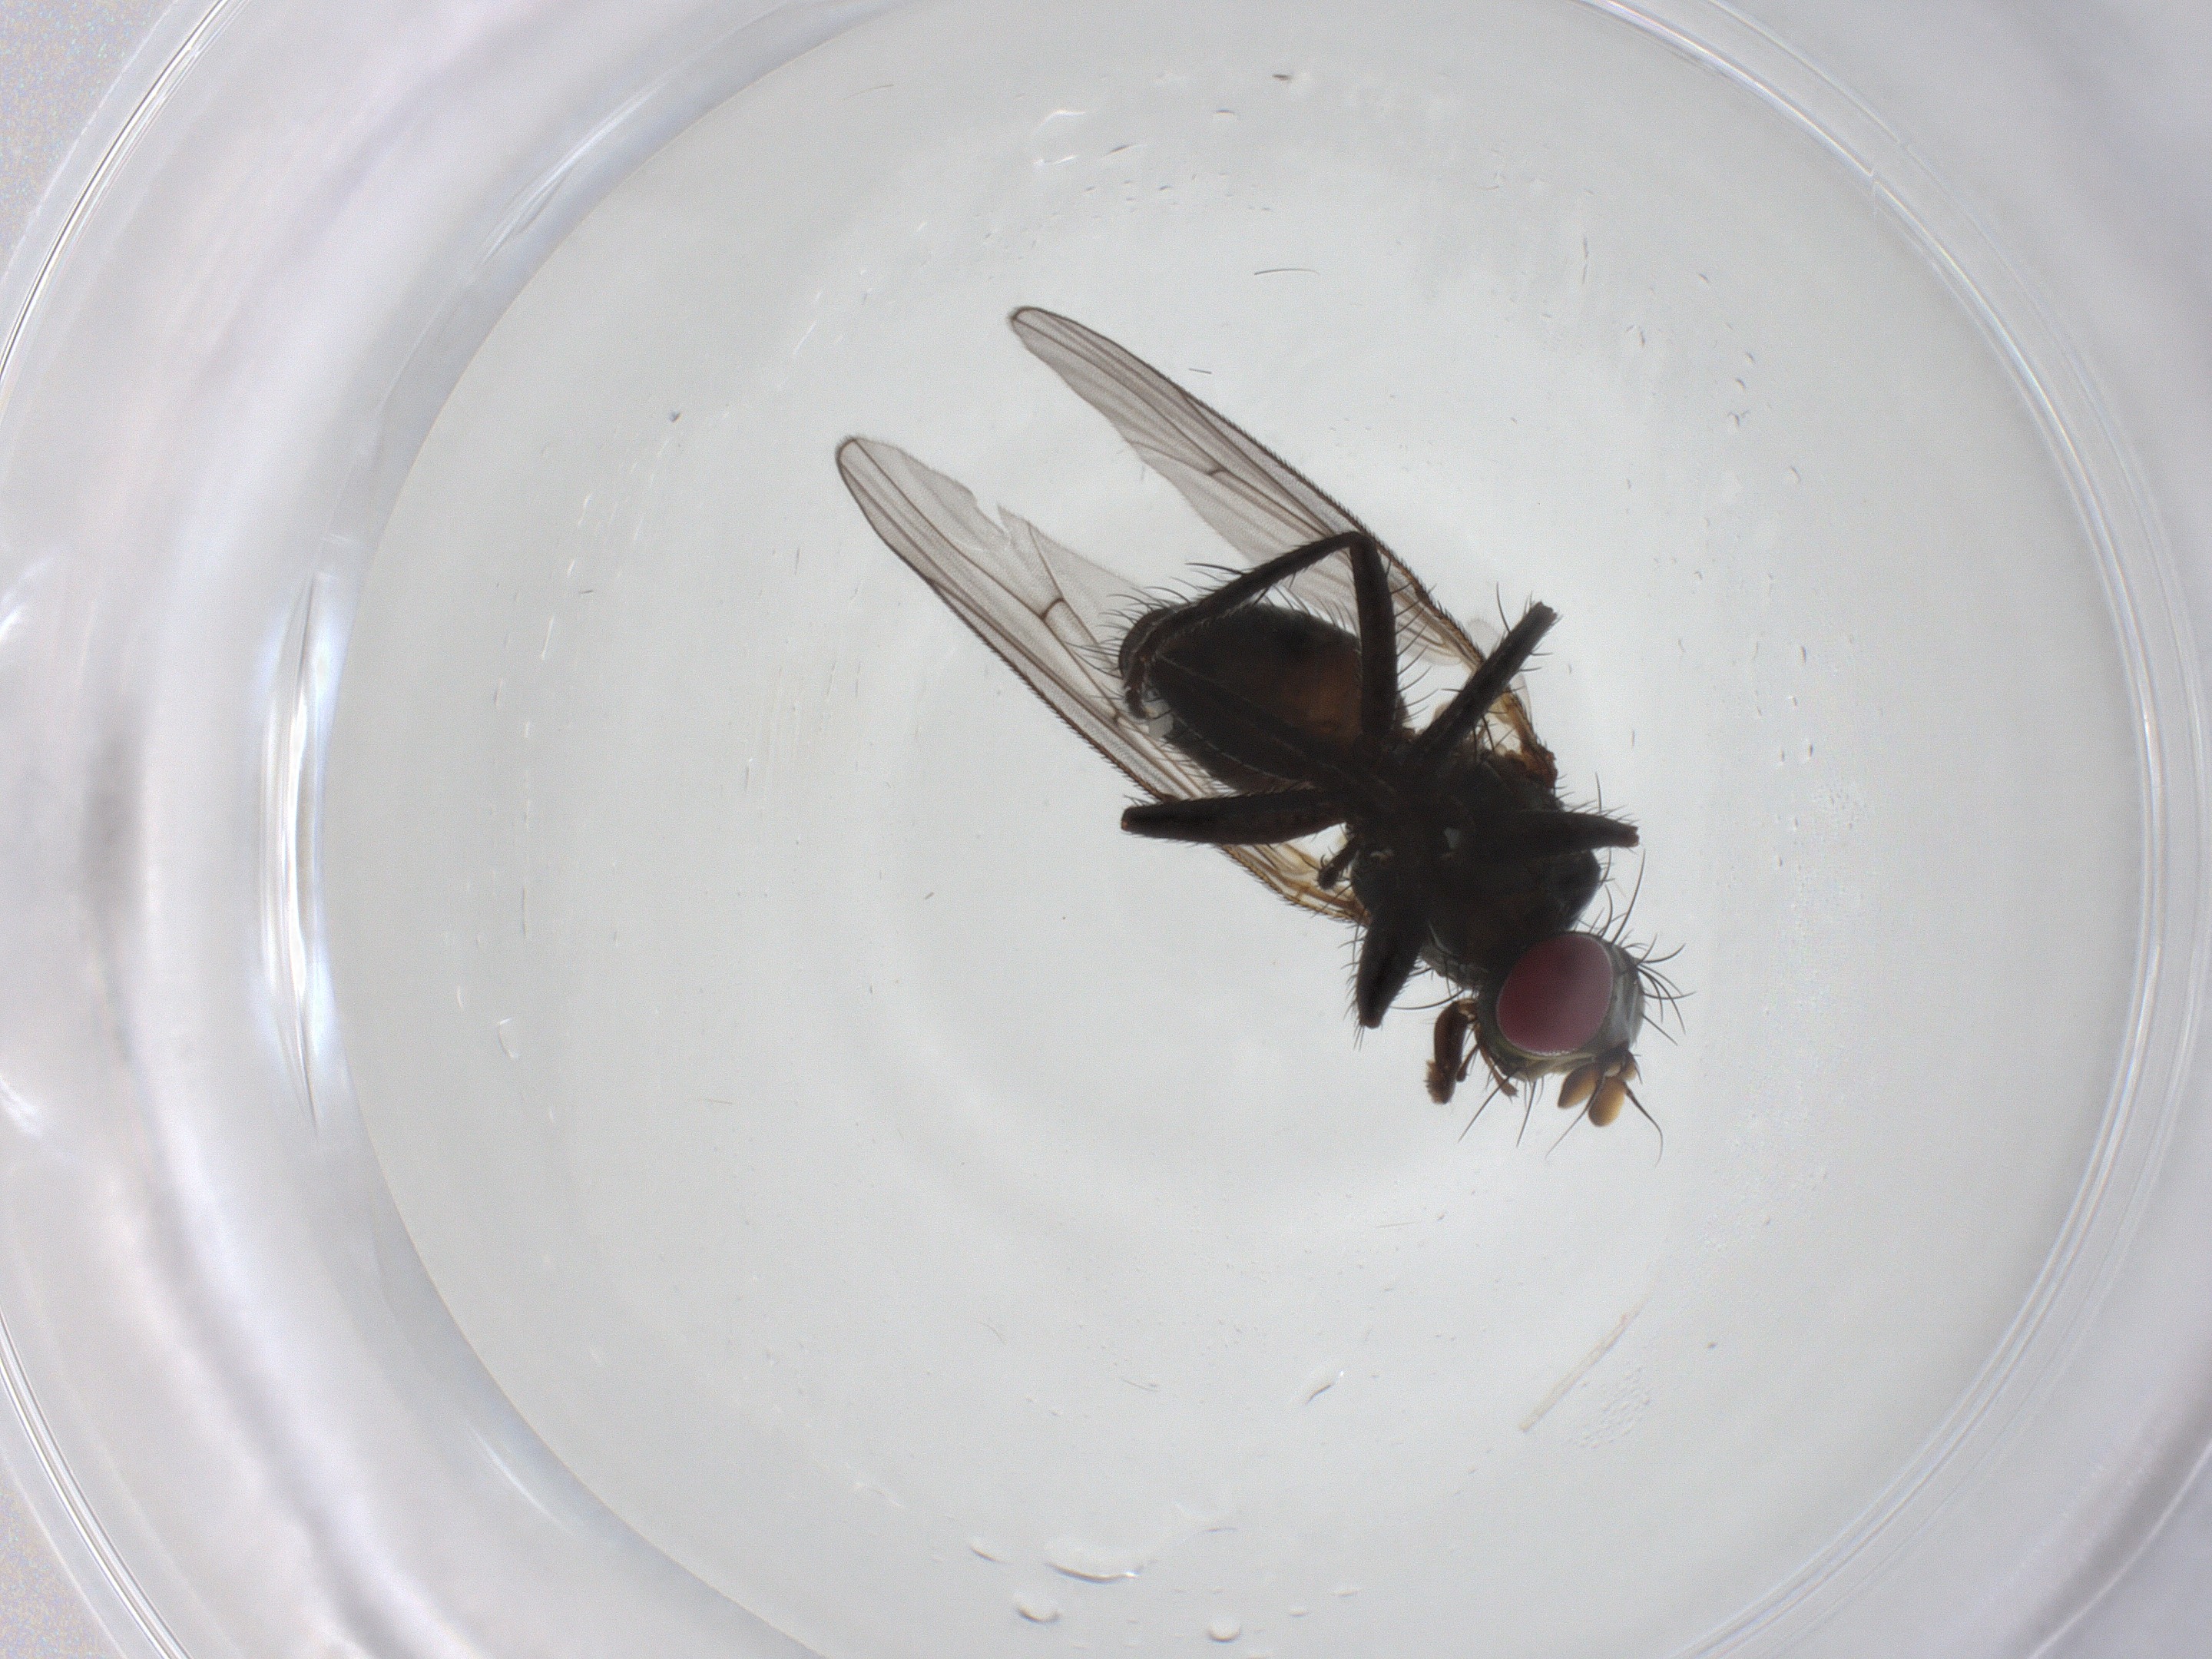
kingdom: Animalia
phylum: Arthropoda
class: Insecta
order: Diptera
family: Muscidae
